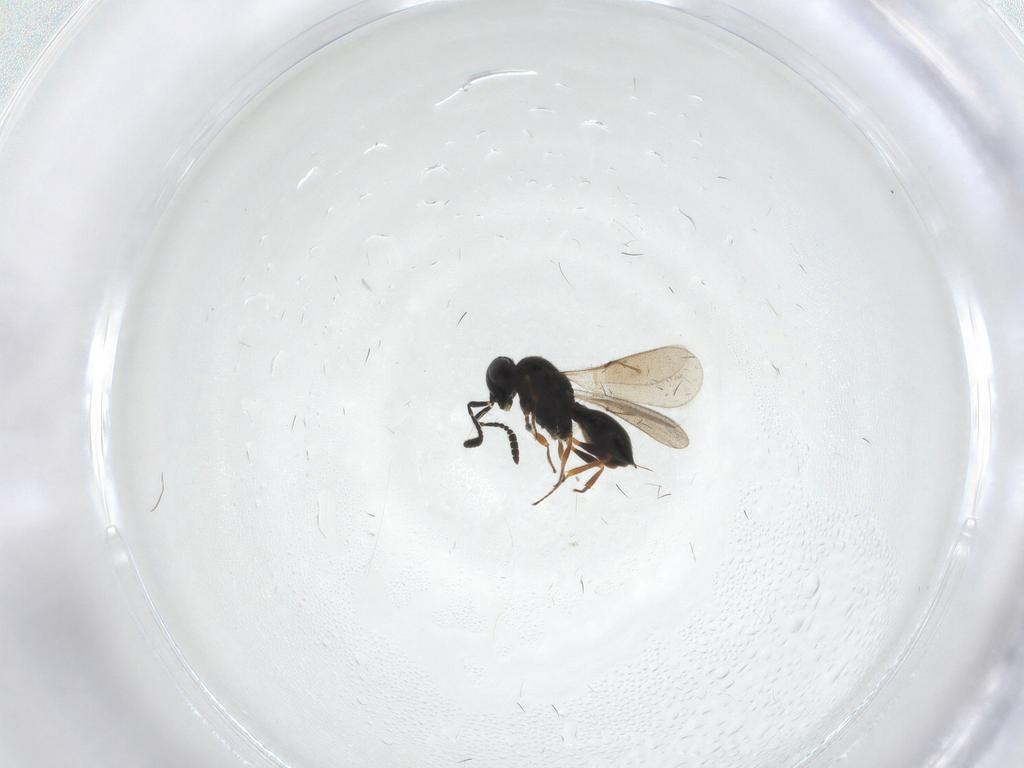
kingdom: Animalia
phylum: Arthropoda
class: Insecta
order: Hymenoptera
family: Scelionidae
